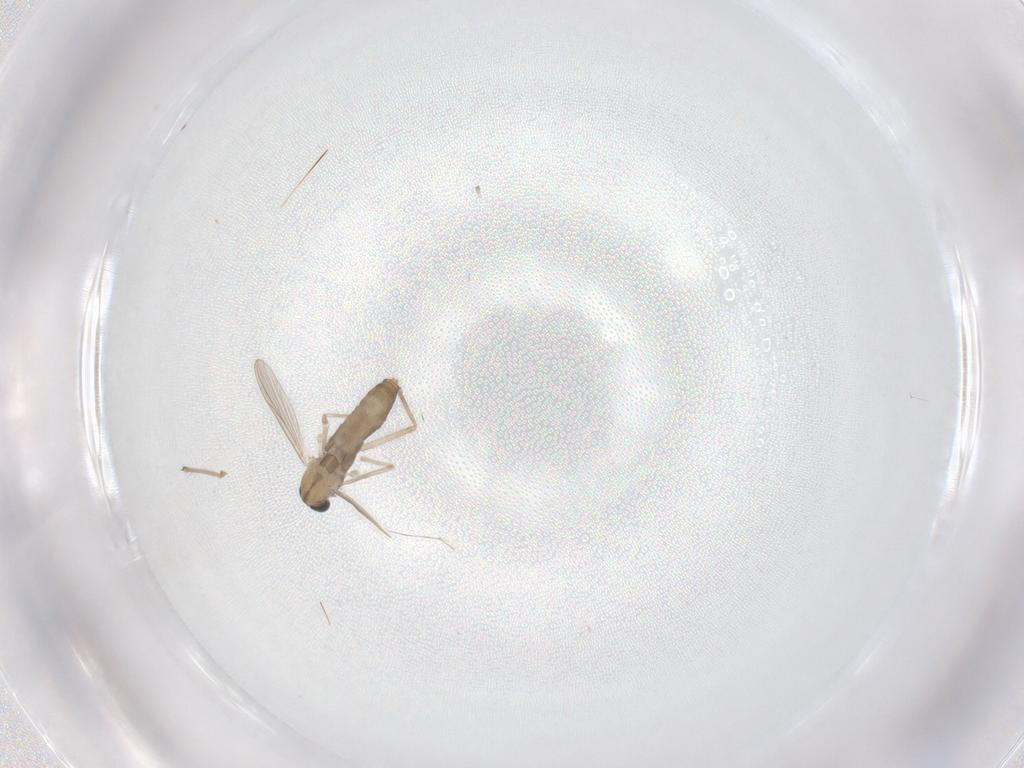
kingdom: Animalia
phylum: Arthropoda
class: Insecta
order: Diptera
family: Chironomidae
